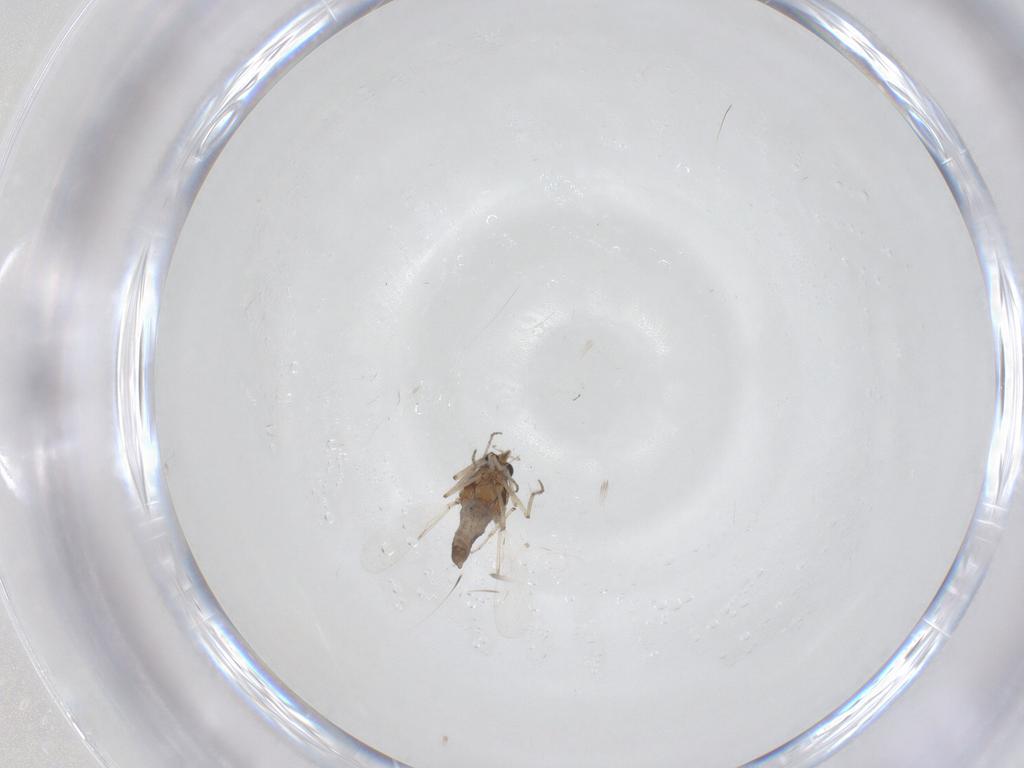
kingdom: Animalia
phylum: Arthropoda
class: Insecta
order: Diptera
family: Ceratopogonidae
